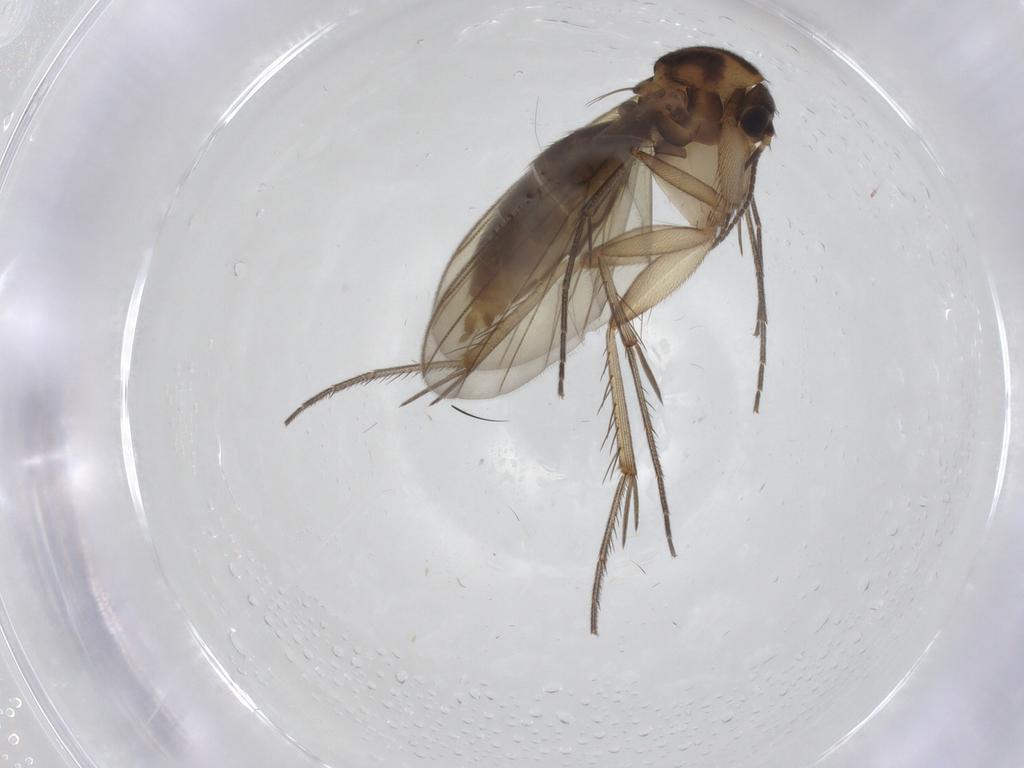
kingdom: Animalia
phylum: Arthropoda
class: Insecta
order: Diptera
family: Mycetophilidae
